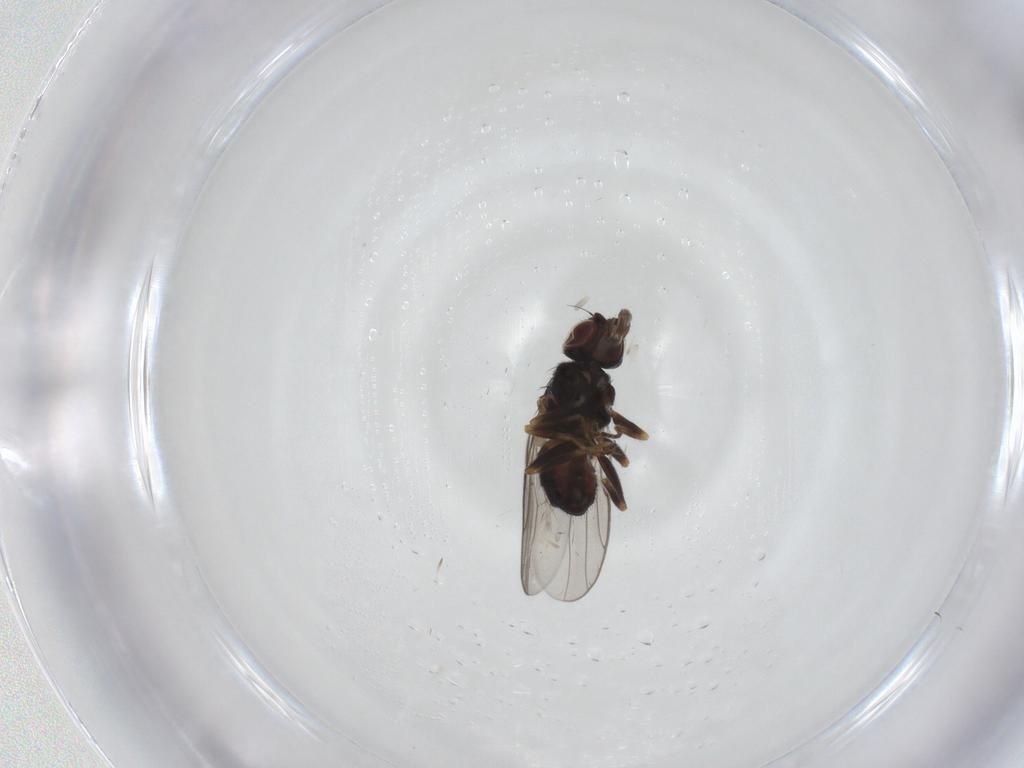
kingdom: Animalia
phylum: Arthropoda
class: Insecta
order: Diptera
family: Chloropidae
